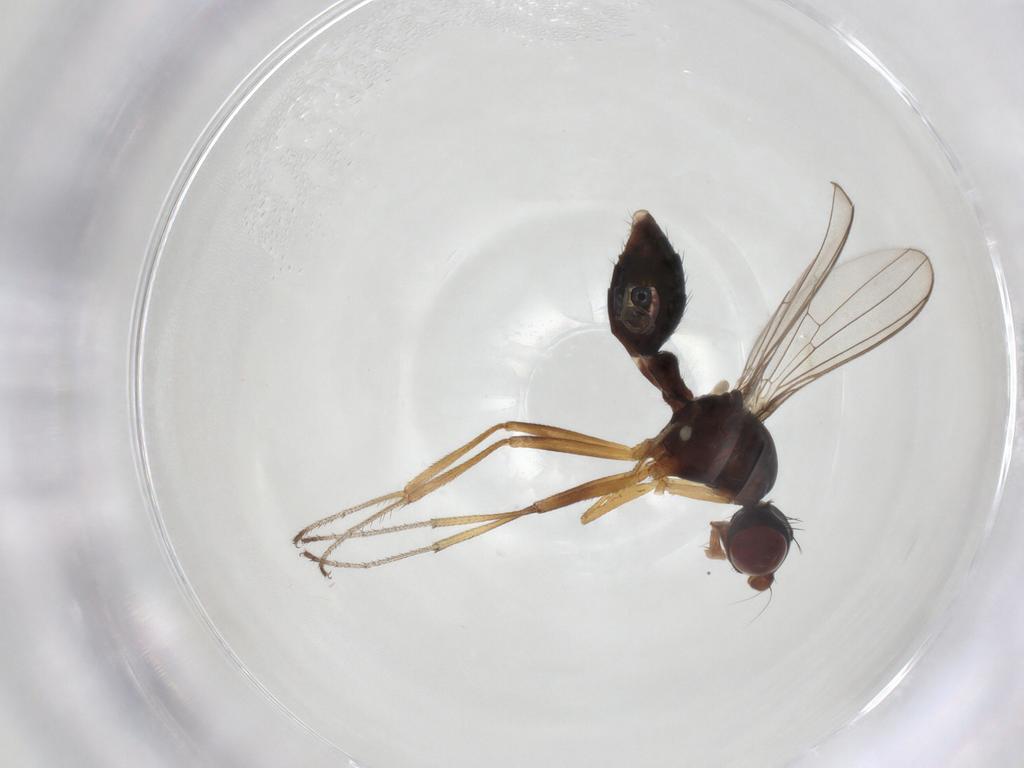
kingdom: Animalia
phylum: Arthropoda
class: Insecta
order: Diptera
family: Sepsidae
